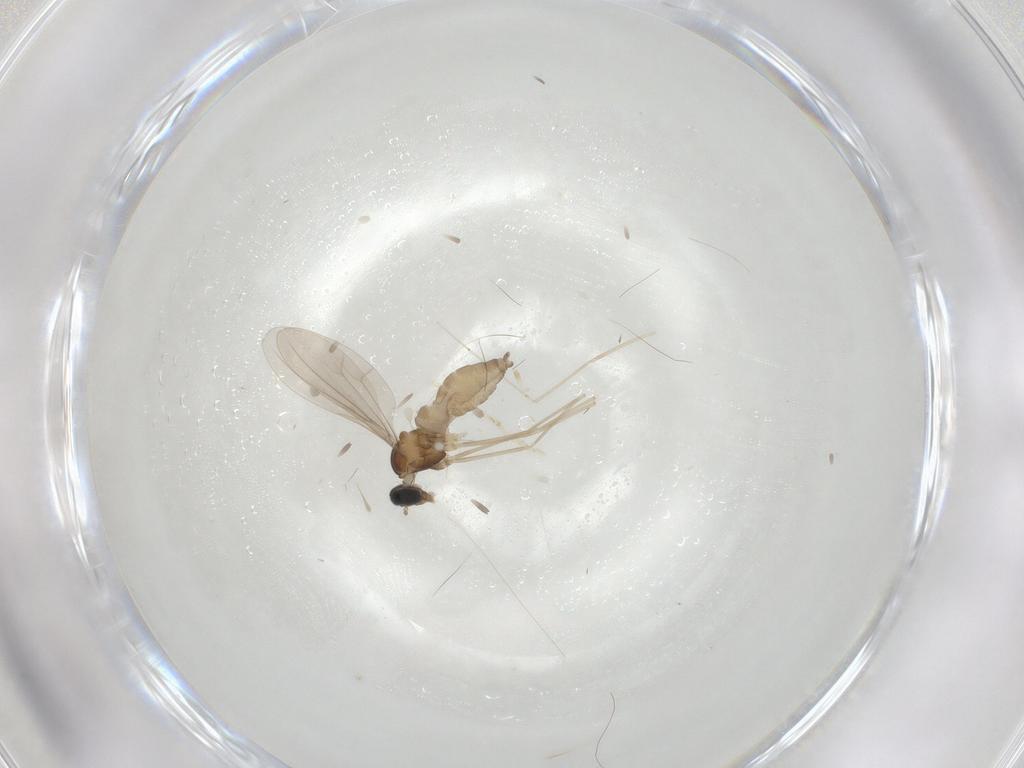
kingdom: Animalia
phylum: Arthropoda
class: Insecta
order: Diptera
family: Cecidomyiidae
